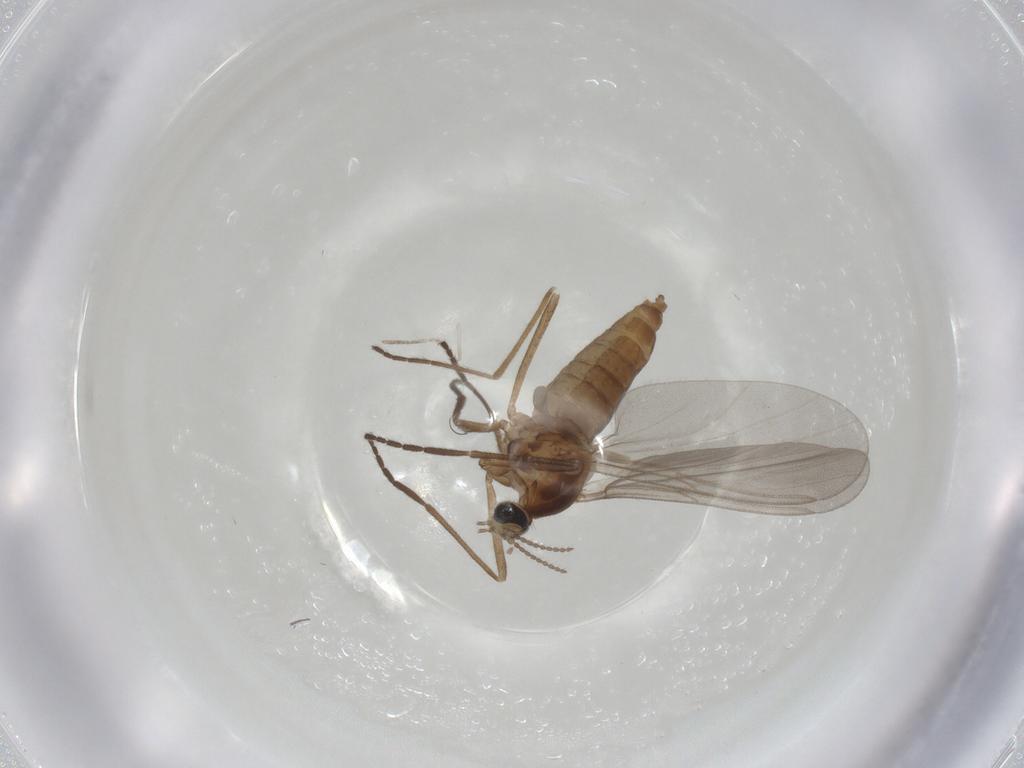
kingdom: Animalia
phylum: Arthropoda
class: Insecta
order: Diptera
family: Cecidomyiidae
